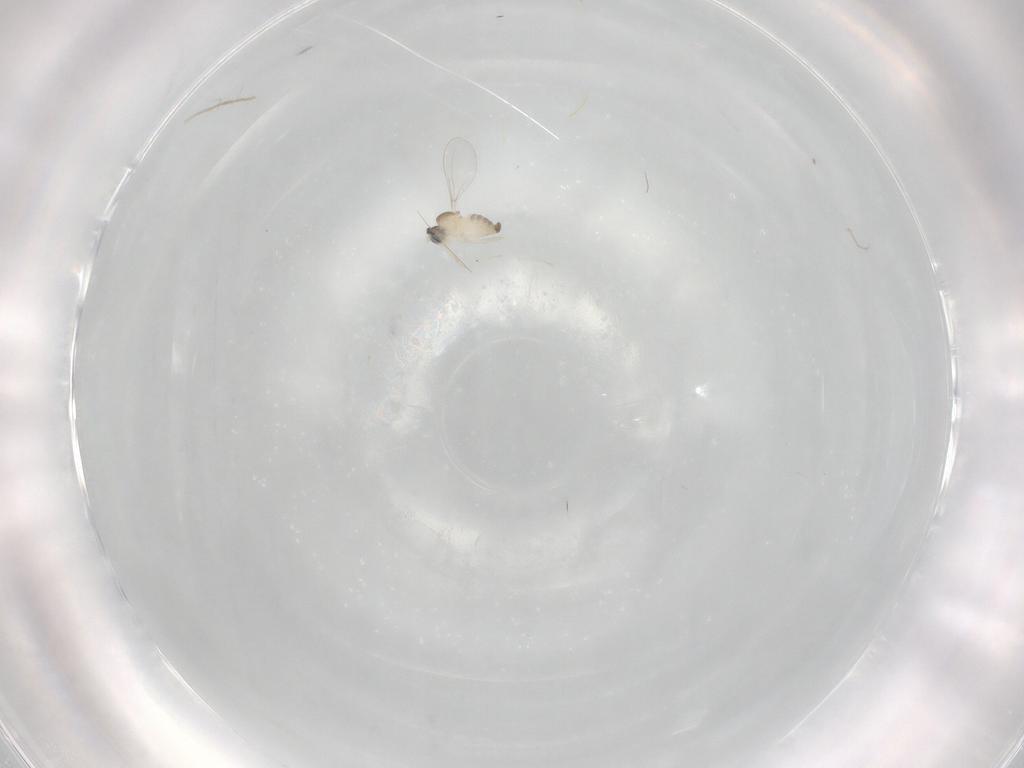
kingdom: Animalia
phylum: Arthropoda
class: Insecta
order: Diptera
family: Cecidomyiidae
